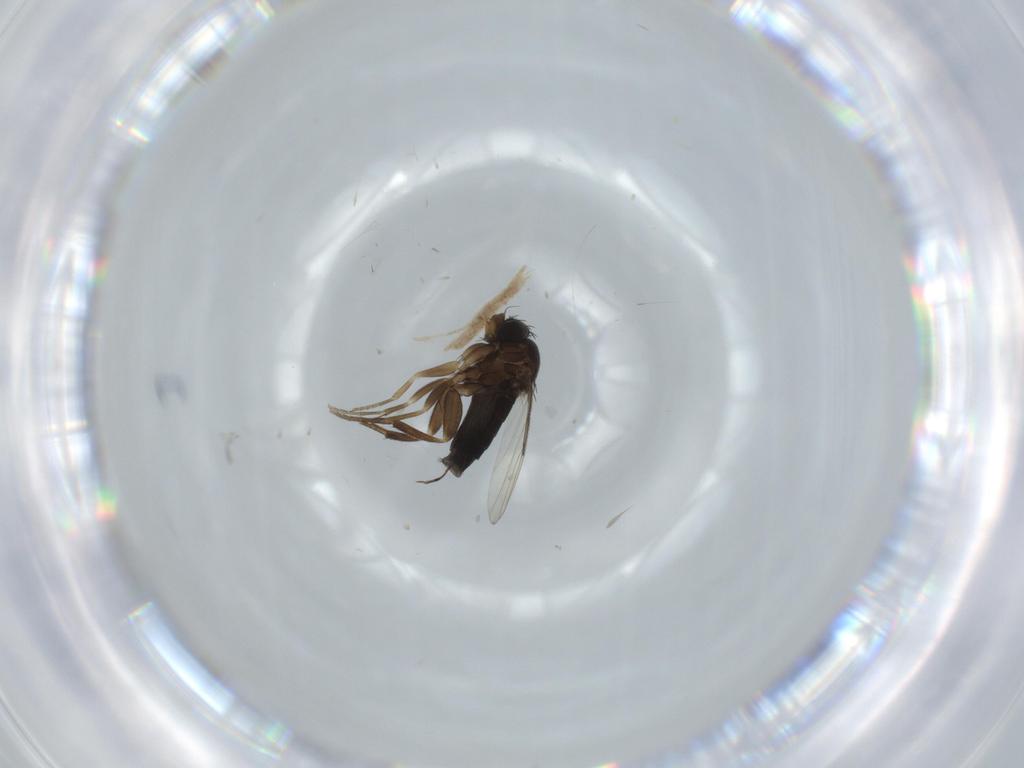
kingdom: Animalia
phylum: Arthropoda
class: Insecta
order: Diptera
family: Phoridae
